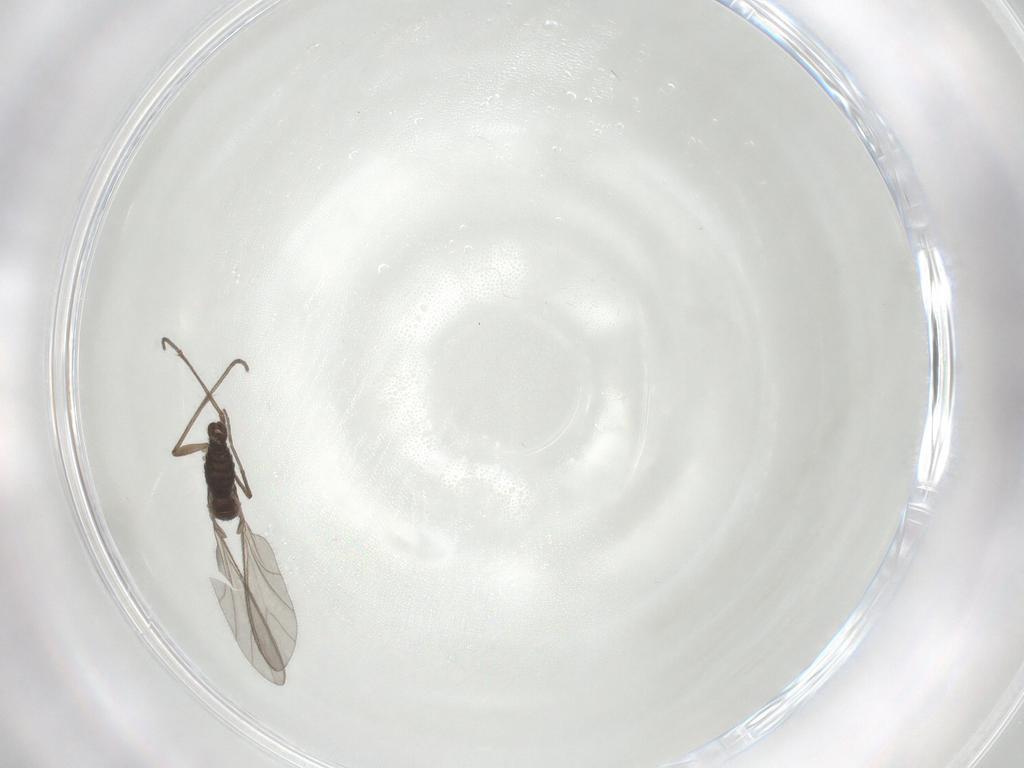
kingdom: Animalia
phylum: Arthropoda
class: Insecta
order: Diptera
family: Sciaridae
